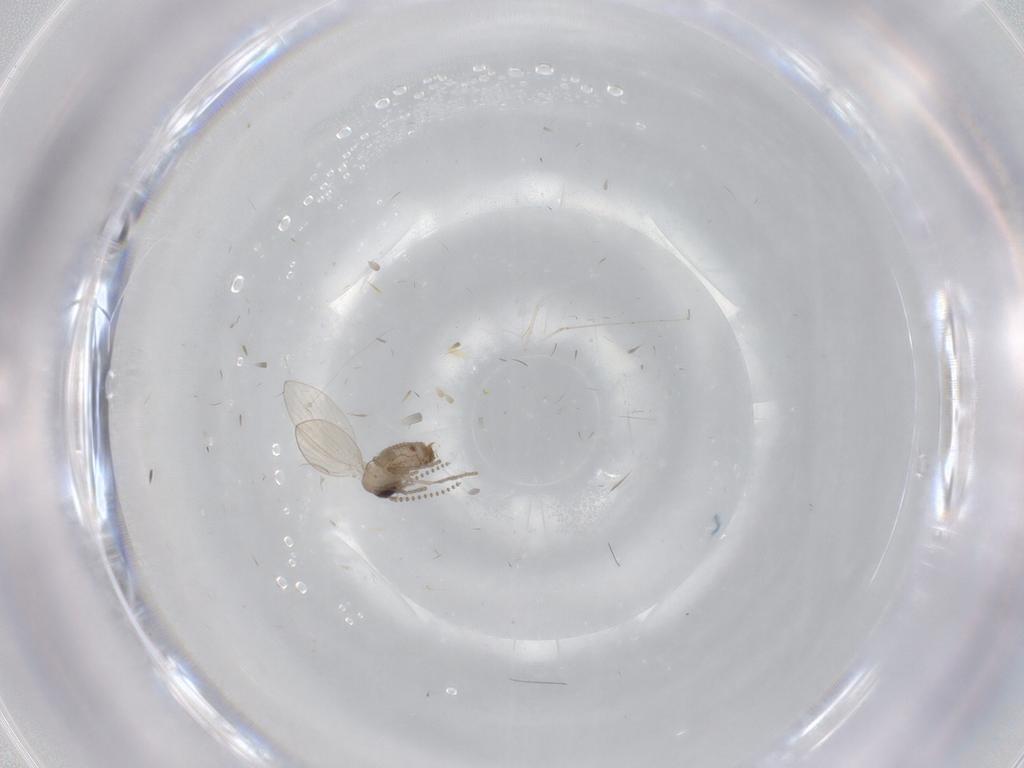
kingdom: Animalia
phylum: Arthropoda
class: Insecta
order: Diptera
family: Cecidomyiidae
